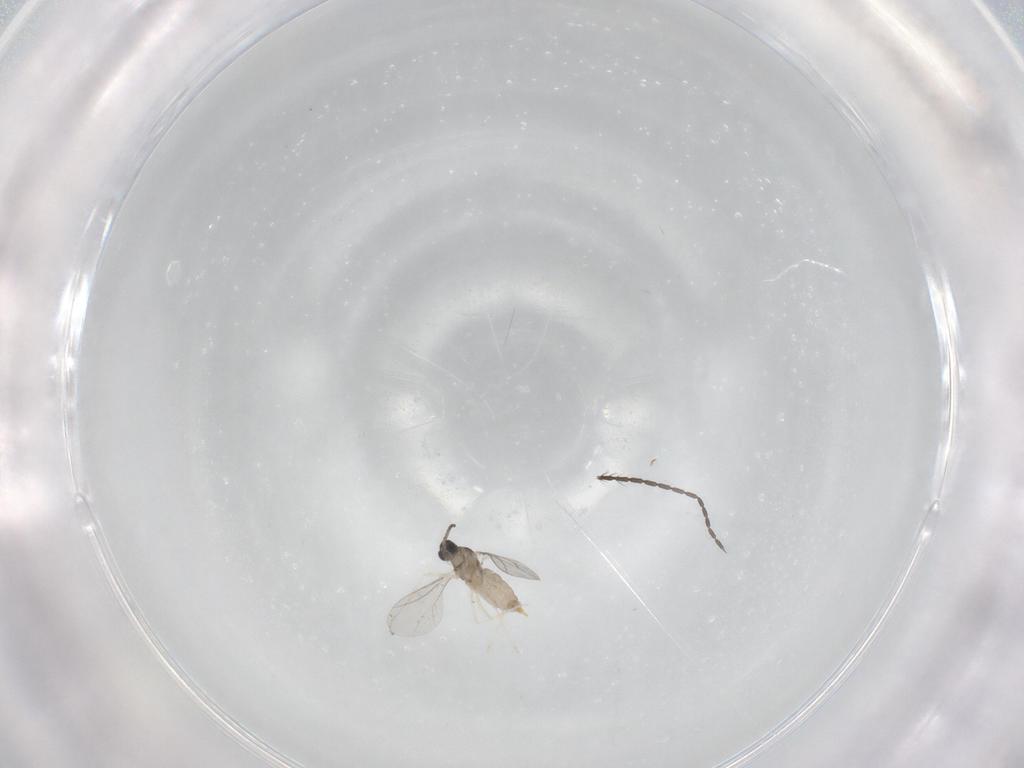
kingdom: Animalia
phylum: Arthropoda
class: Insecta
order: Diptera
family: Cecidomyiidae
